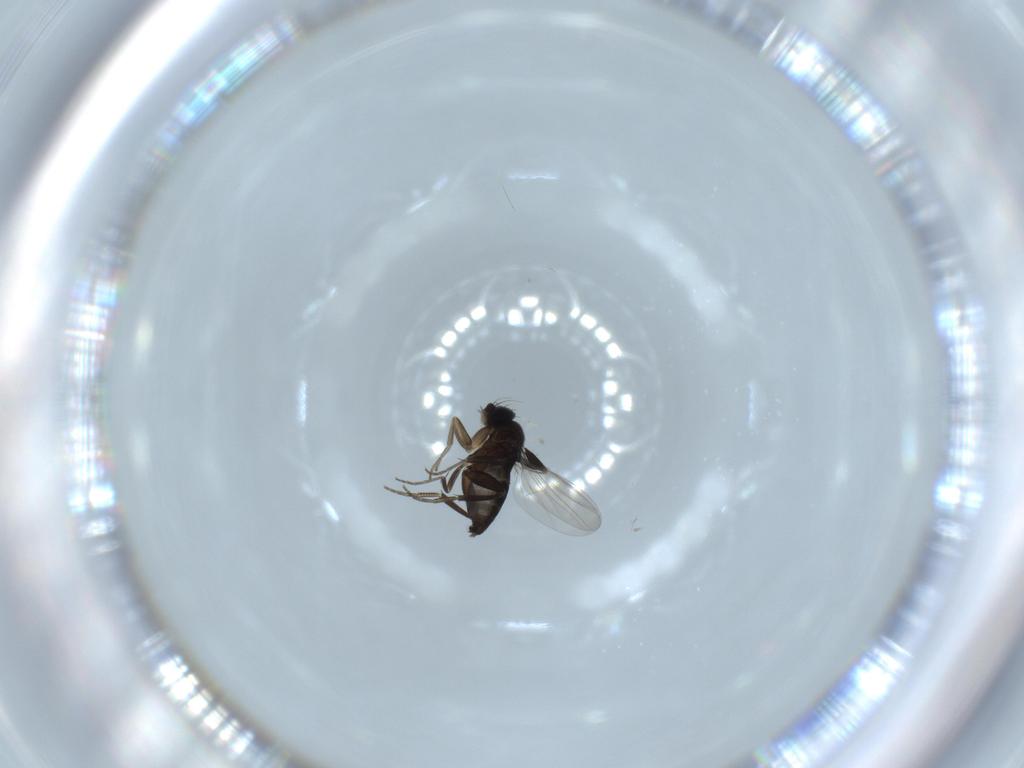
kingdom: Animalia
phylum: Arthropoda
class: Insecta
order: Diptera
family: Phoridae
